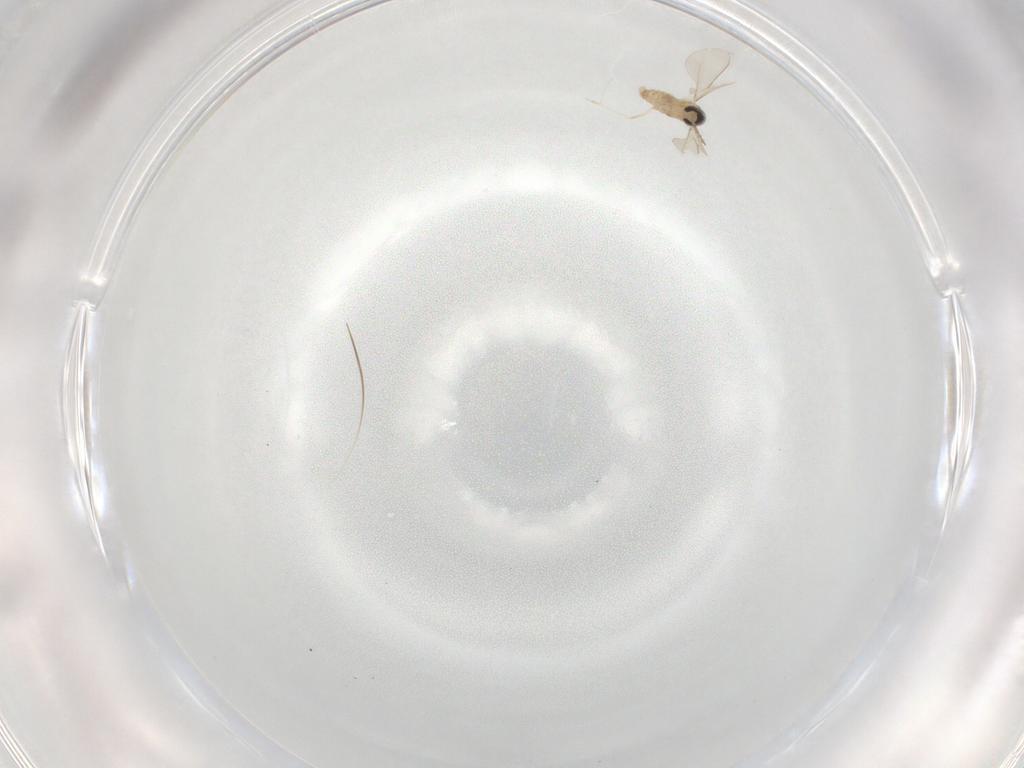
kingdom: Animalia
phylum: Arthropoda
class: Insecta
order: Diptera
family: Cecidomyiidae
